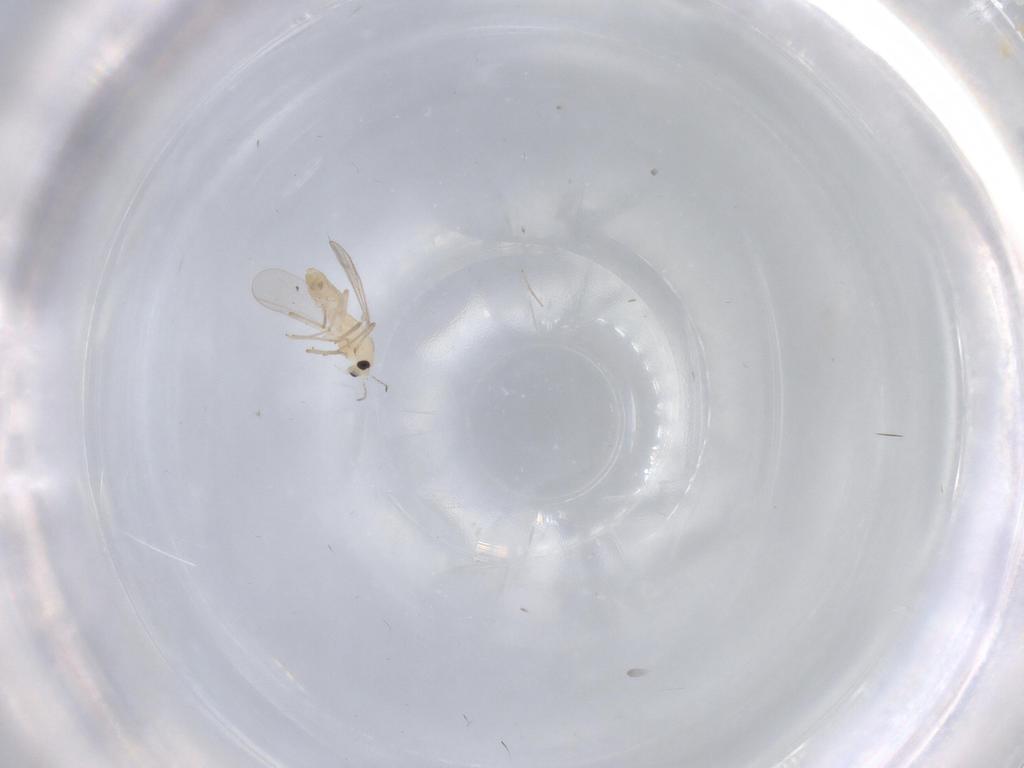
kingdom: Animalia
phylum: Arthropoda
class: Insecta
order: Diptera
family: Chironomidae
